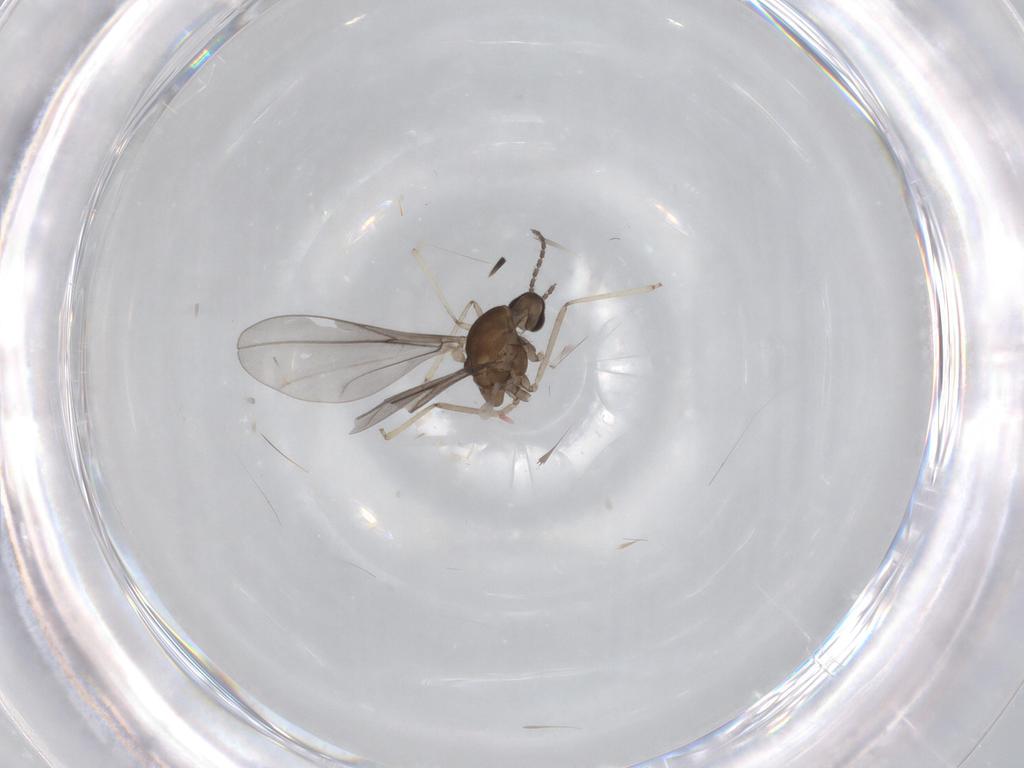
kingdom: Animalia
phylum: Arthropoda
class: Insecta
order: Diptera
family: Cecidomyiidae
